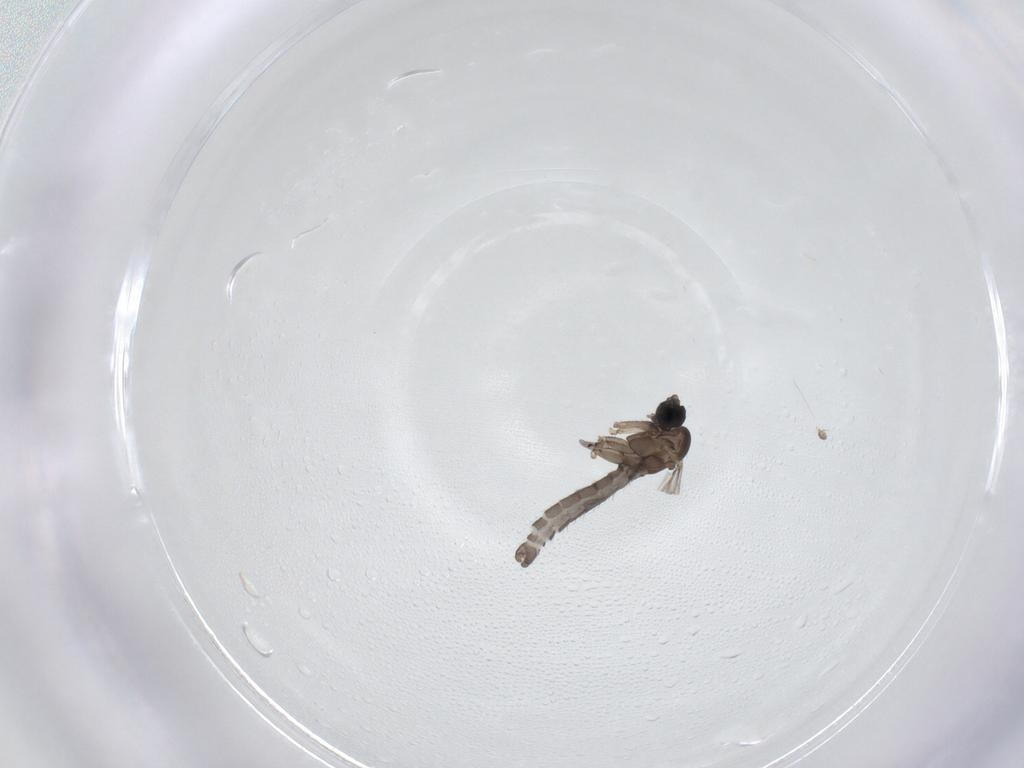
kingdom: Animalia
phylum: Arthropoda
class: Insecta
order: Diptera
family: Sciaridae
